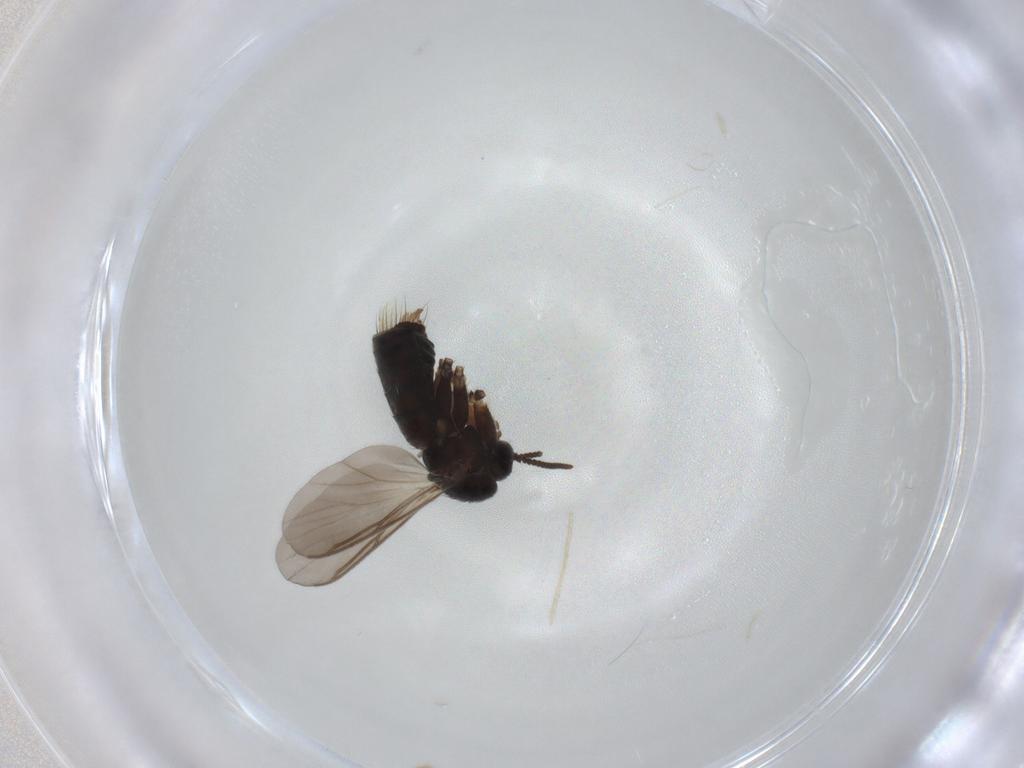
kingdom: Animalia
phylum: Arthropoda
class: Insecta
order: Diptera
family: Mycetophilidae
